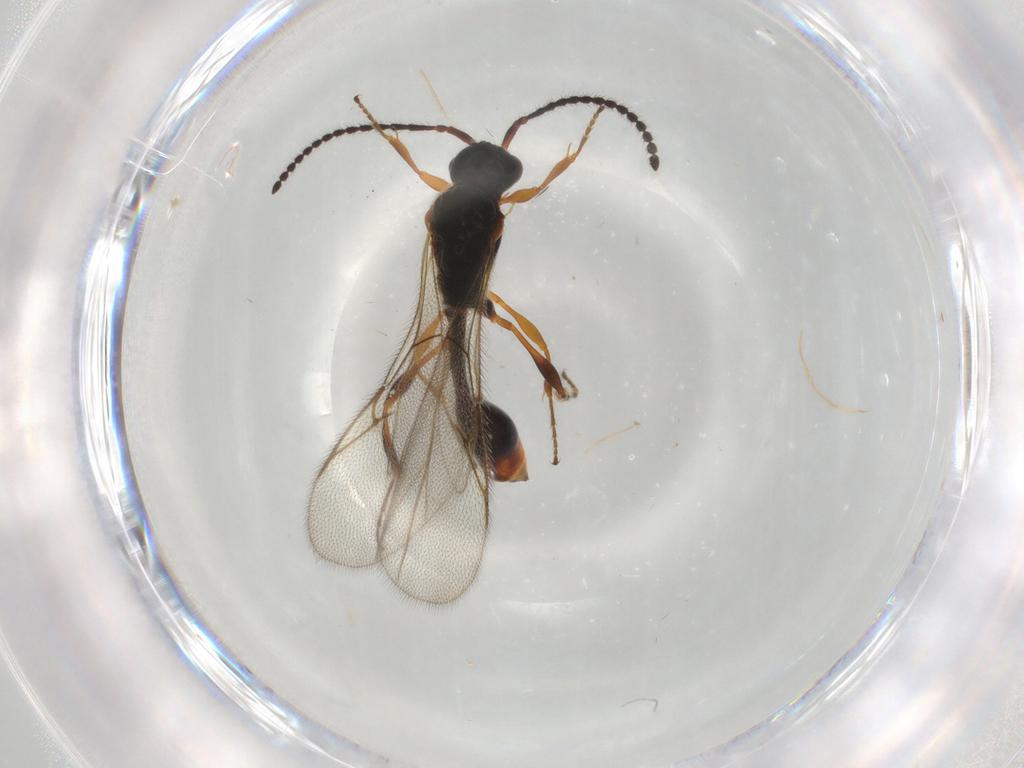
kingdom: Animalia
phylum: Arthropoda
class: Insecta
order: Hymenoptera
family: Diapriidae
